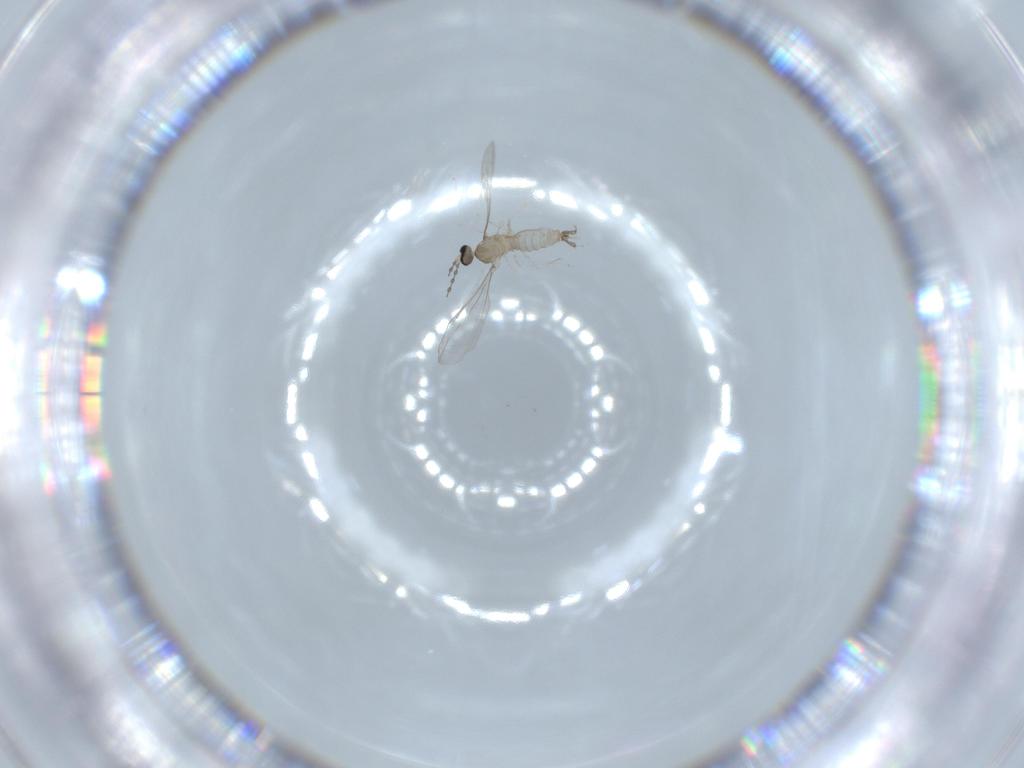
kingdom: Animalia
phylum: Arthropoda
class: Insecta
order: Diptera
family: Cecidomyiidae
